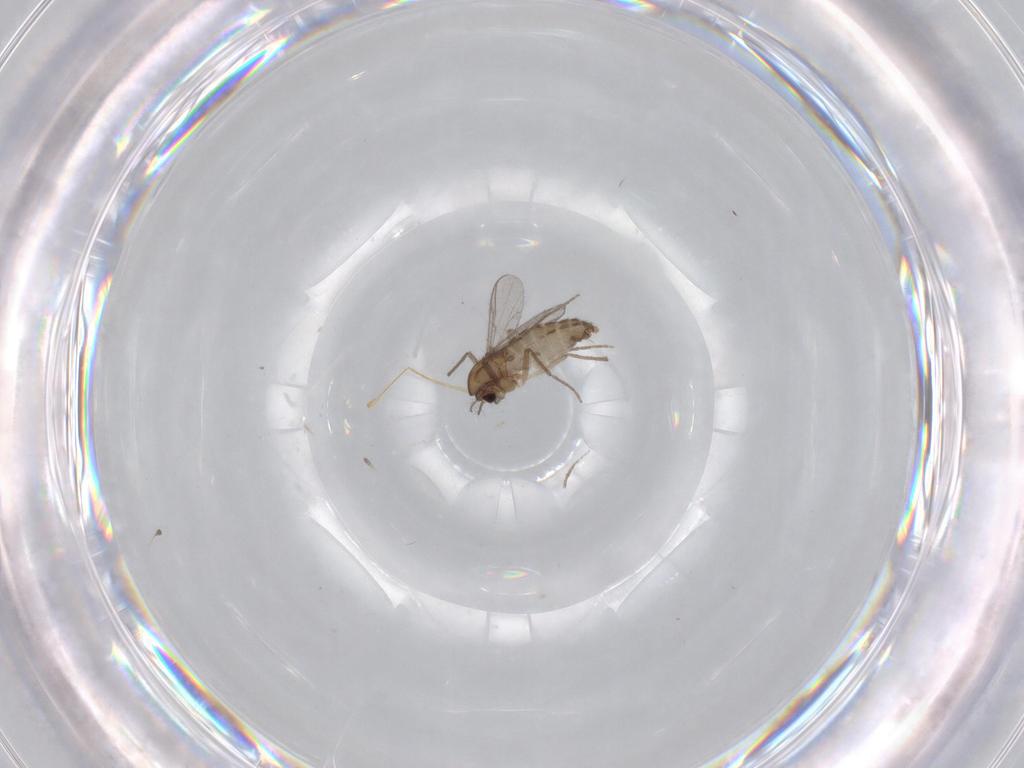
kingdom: Animalia
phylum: Arthropoda
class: Insecta
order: Diptera
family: Chironomidae
